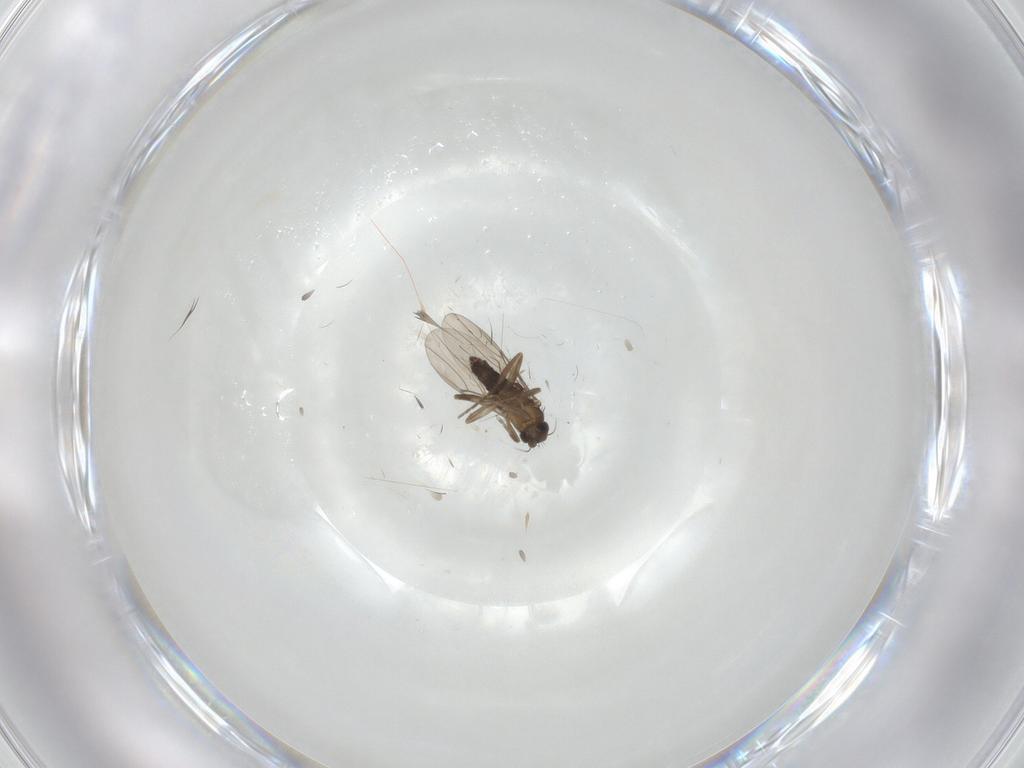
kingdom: Animalia
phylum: Arthropoda
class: Insecta
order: Diptera
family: Phoridae
